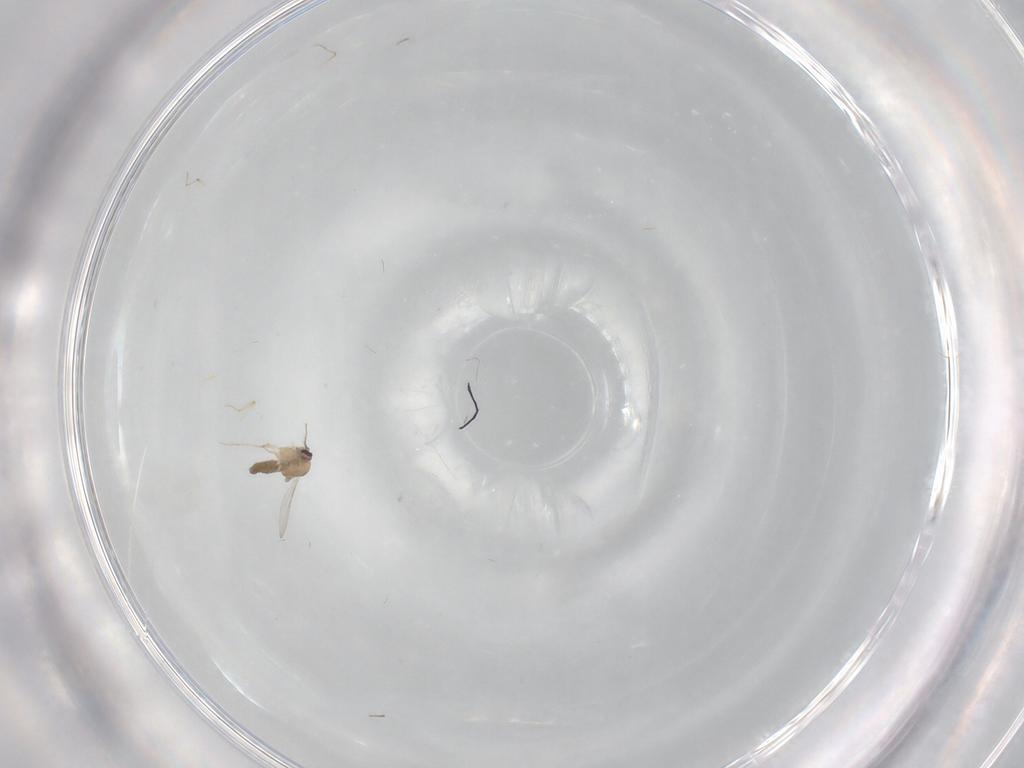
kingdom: Animalia
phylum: Arthropoda
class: Insecta
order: Diptera
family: Ceratopogonidae
